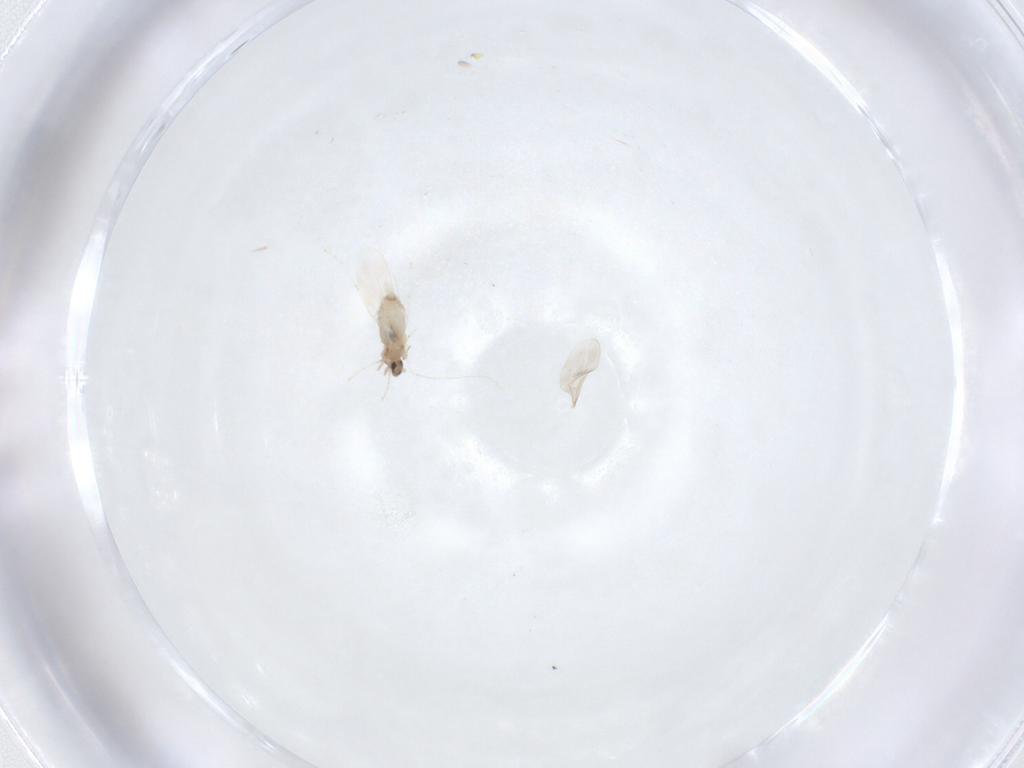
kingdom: Animalia
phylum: Arthropoda
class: Insecta
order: Diptera
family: Cecidomyiidae
